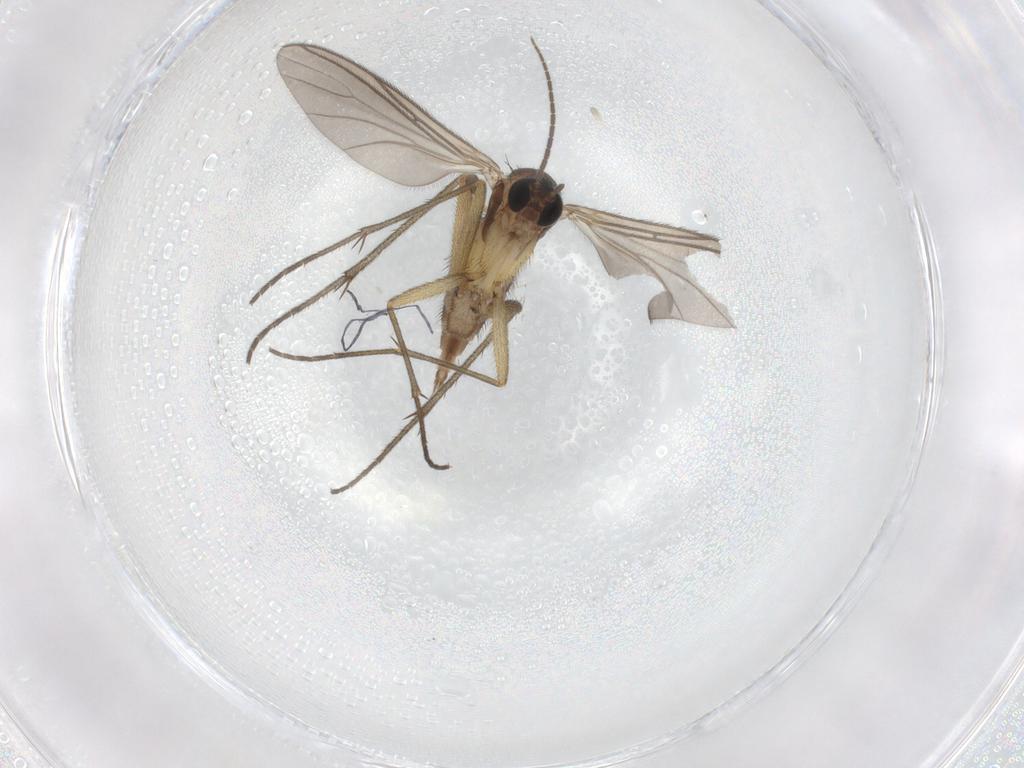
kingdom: Animalia
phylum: Arthropoda
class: Insecta
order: Diptera
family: Sciaridae
